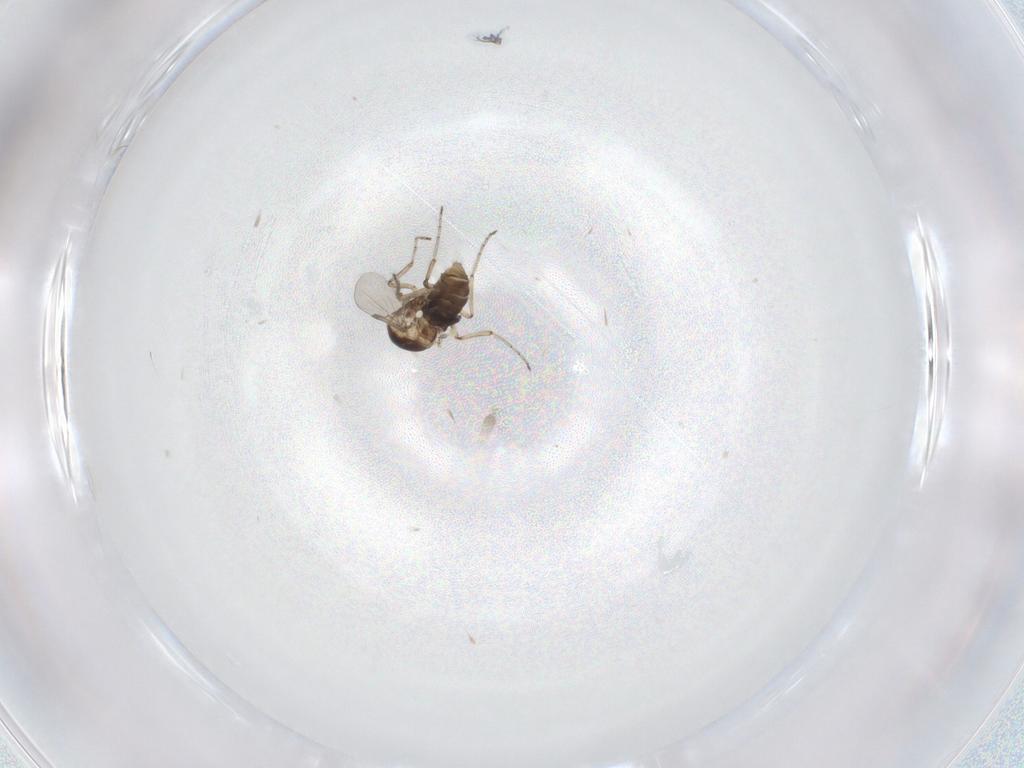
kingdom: Animalia
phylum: Arthropoda
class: Insecta
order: Diptera
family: Ceratopogonidae
